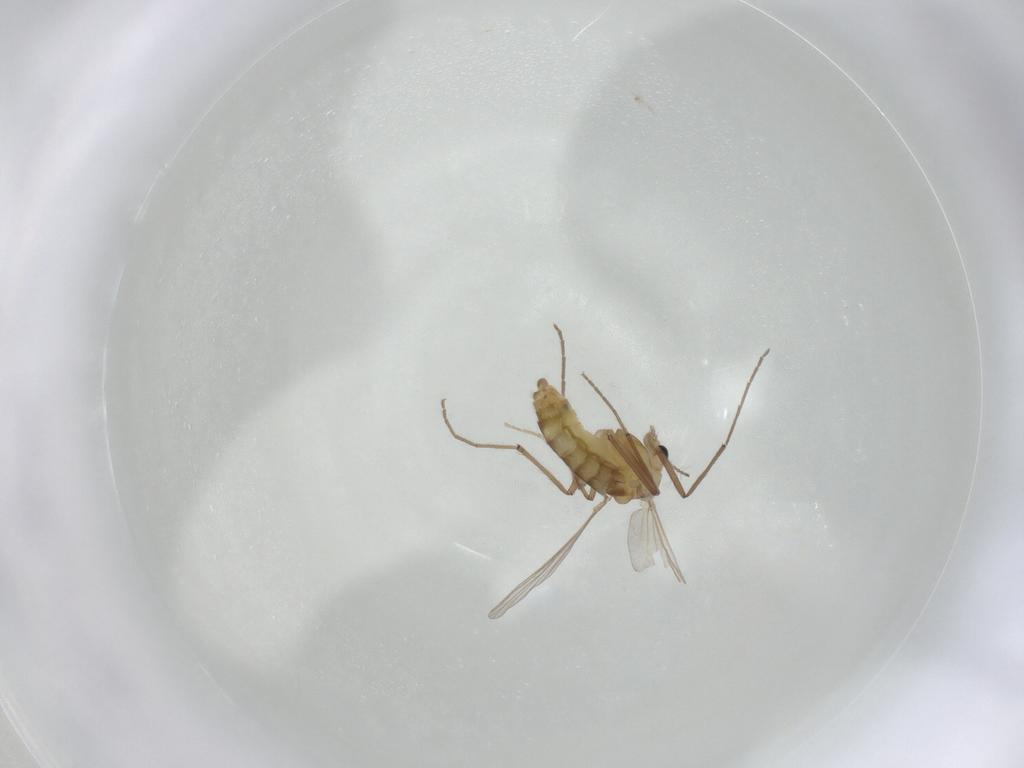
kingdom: Animalia
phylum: Arthropoda
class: Insecta
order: Diptera
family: Chironomidae
